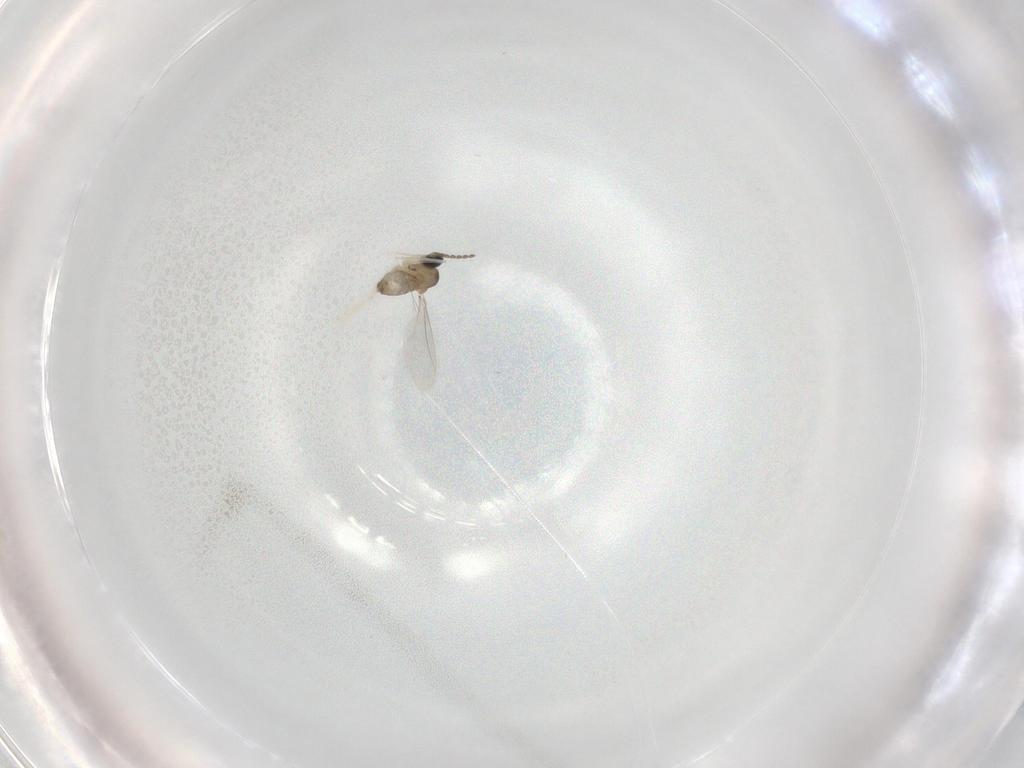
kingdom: Animalia
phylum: Arthropoda
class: Insecta
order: Diptera
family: Cecidomyiidae
